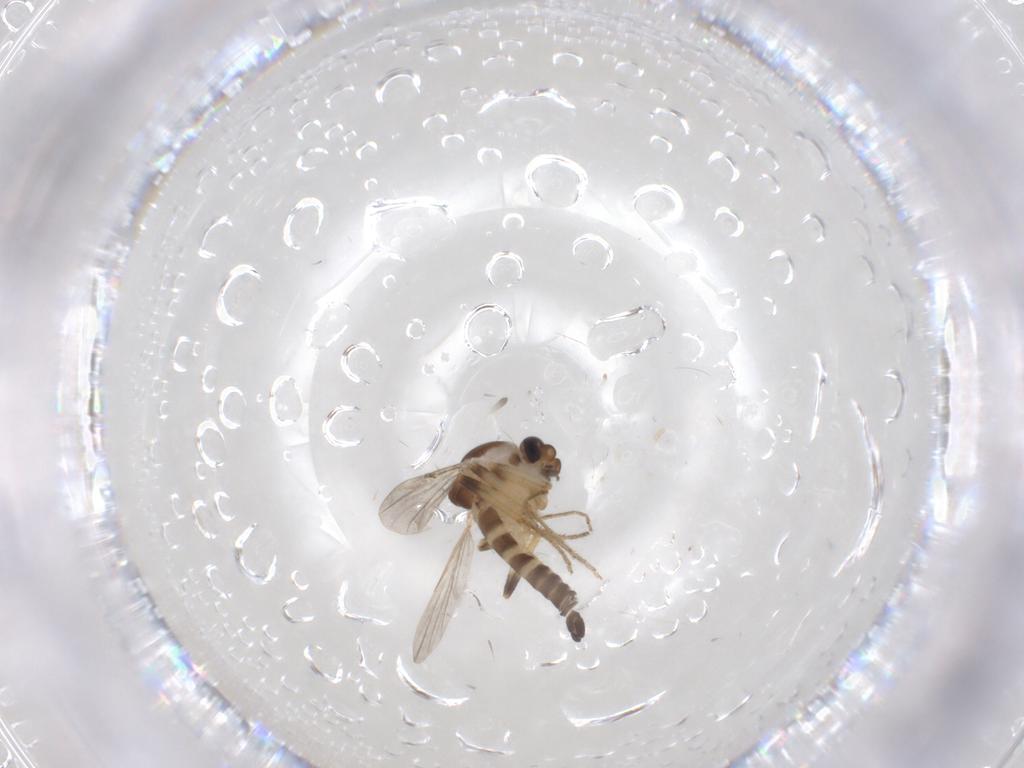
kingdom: Animalia
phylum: Arthropoda
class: Insecta
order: Diptera
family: Ceratopogonidae
